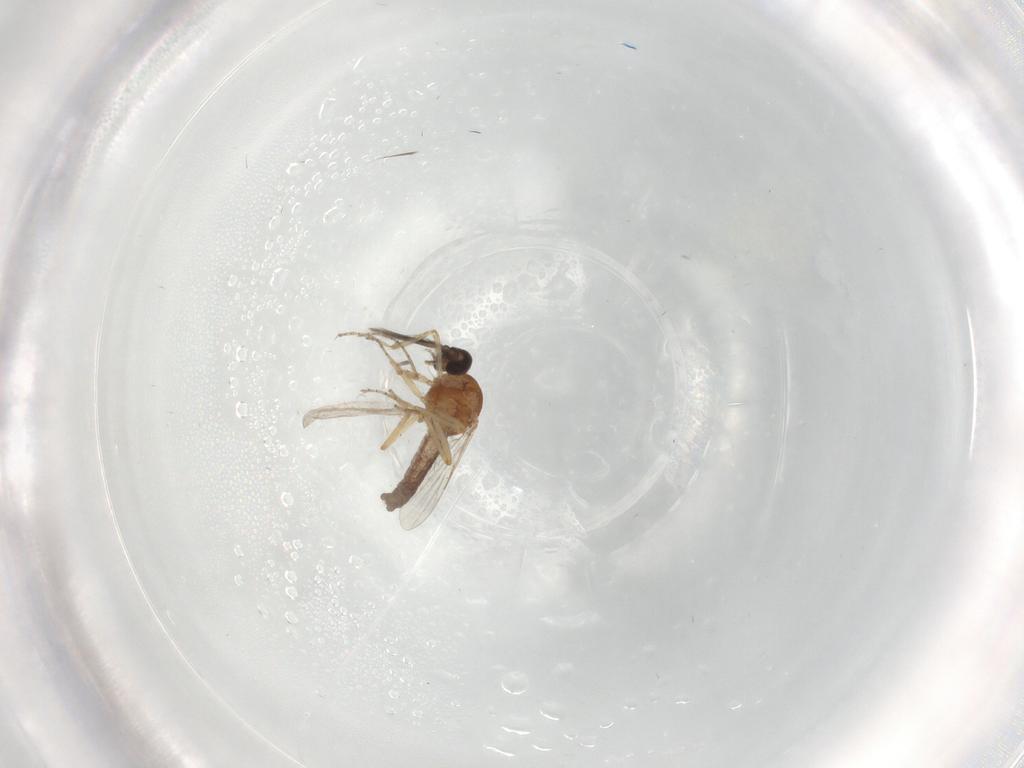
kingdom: Animalia
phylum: Arthropoda
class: Insecta
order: Diptera
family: Ceratopogonidae
